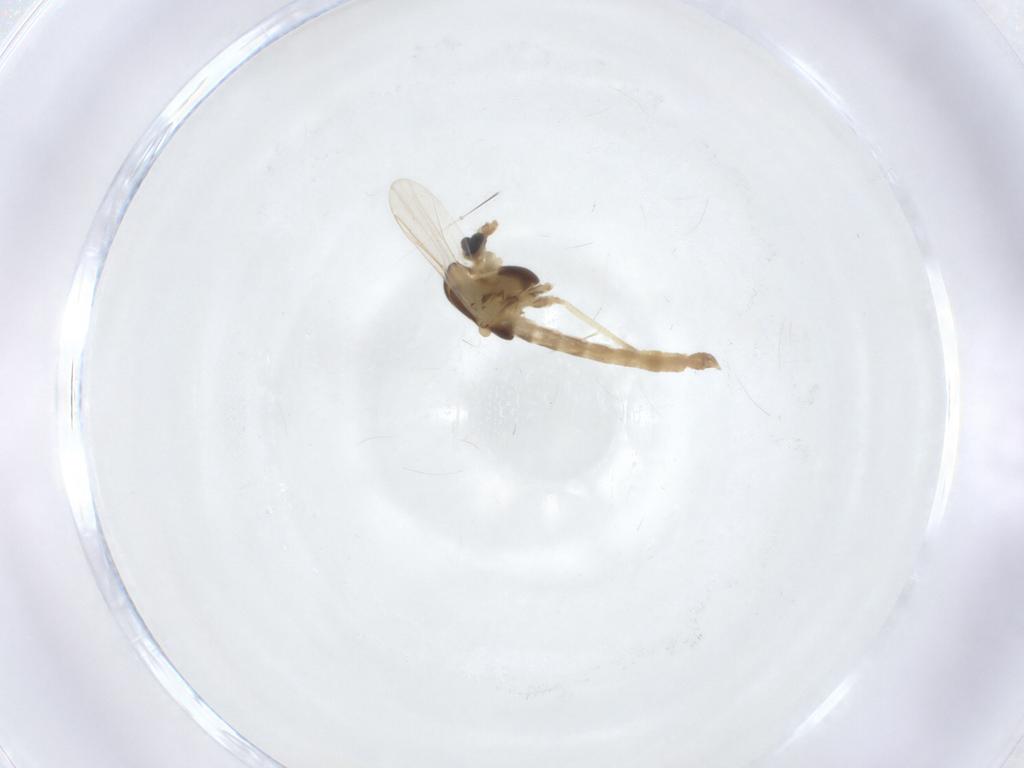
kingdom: Animalia
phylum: Arthropoda
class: Insecta
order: Diptera
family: Chironomidae
